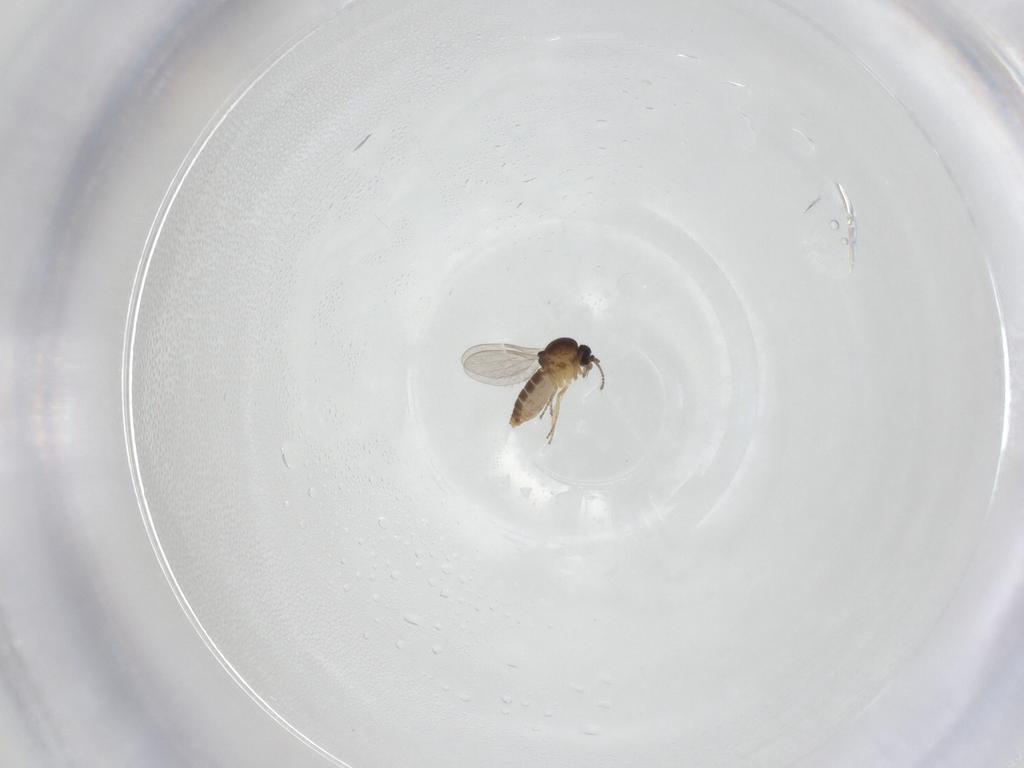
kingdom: Animalia
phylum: Arthropoda
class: Insecta
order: Diptera
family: Ceratopogonidae
